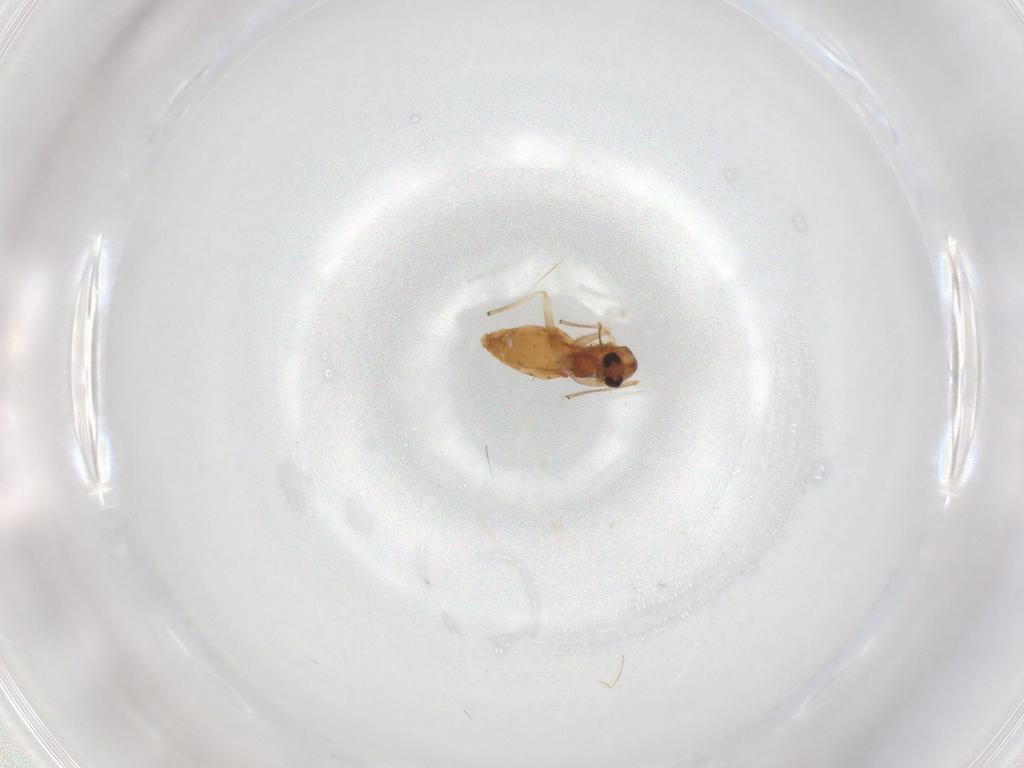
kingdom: Animalia
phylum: Arthropoda
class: Insecta
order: Diptera
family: Chironomidae
